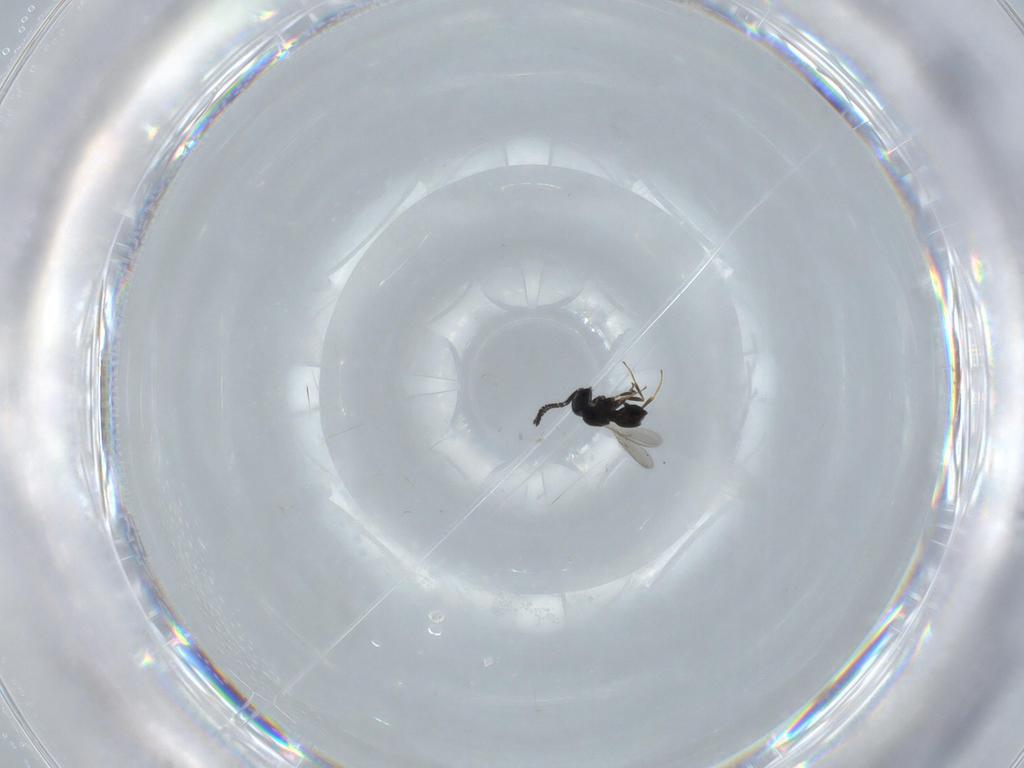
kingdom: Animalia
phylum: Arthropoda
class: Insecta
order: Hymenoptera
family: Scelionidae
